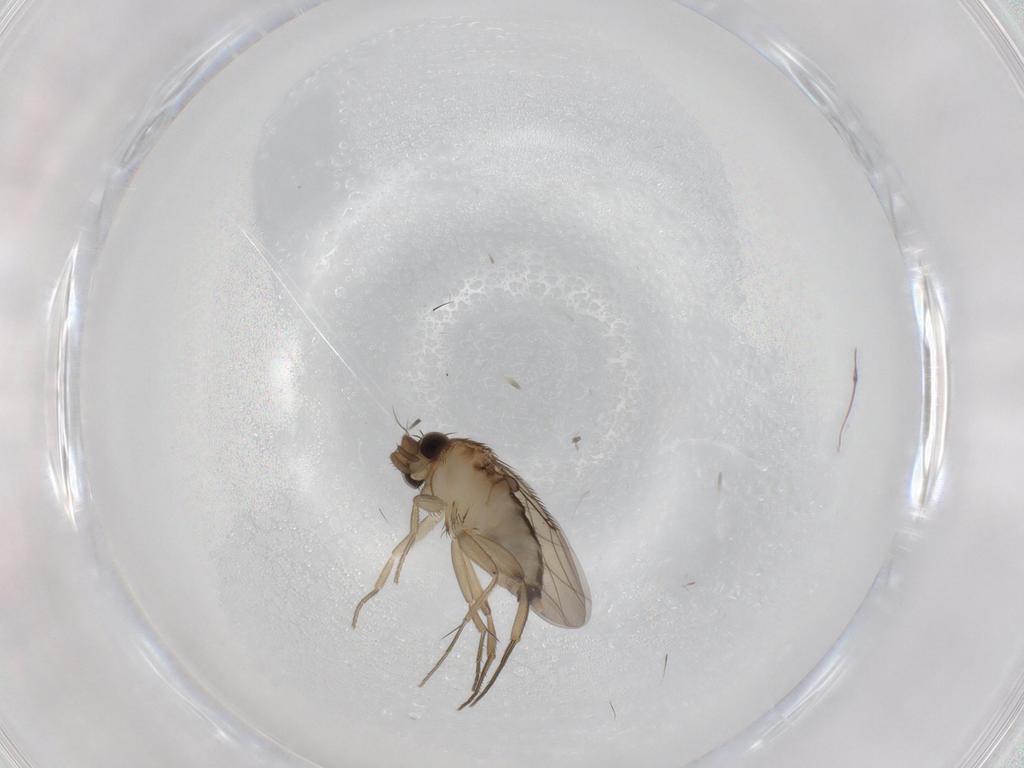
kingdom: Animalia
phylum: Arthropoda
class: Insecta
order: Diptera
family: Phoridae
